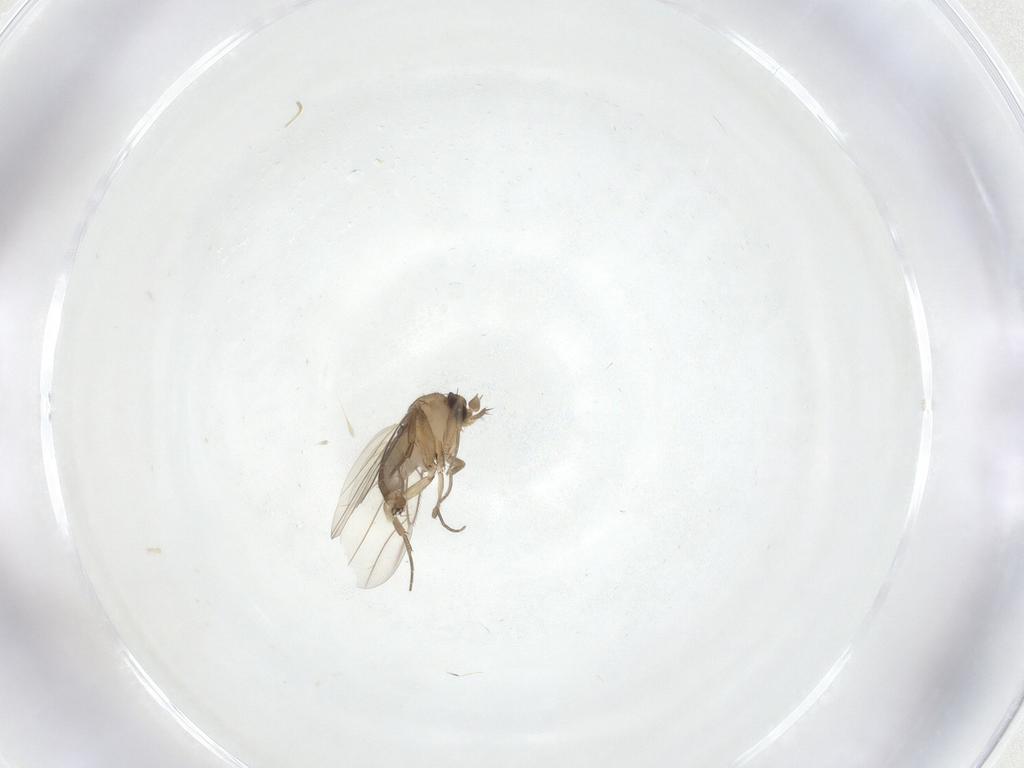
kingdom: Animalia
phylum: Arthropoda
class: Insecta
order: Diptera
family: Phoridae
